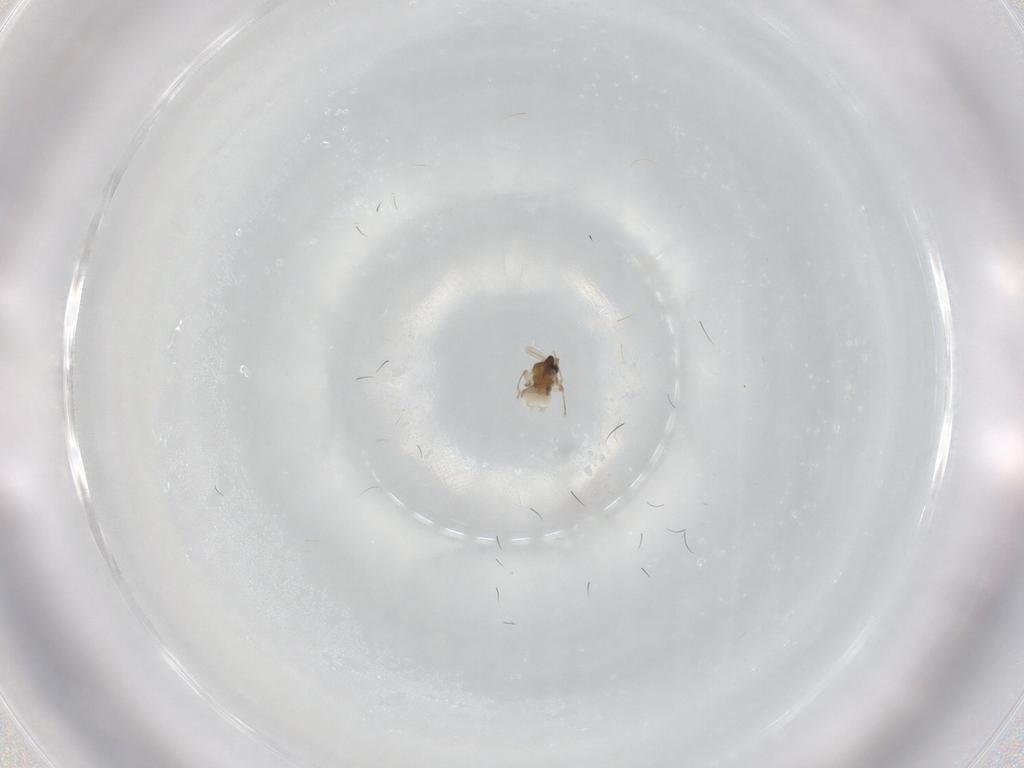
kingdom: Animalia
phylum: Arthropoda
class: Insecta
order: Diptera
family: Cecidomyiidae
